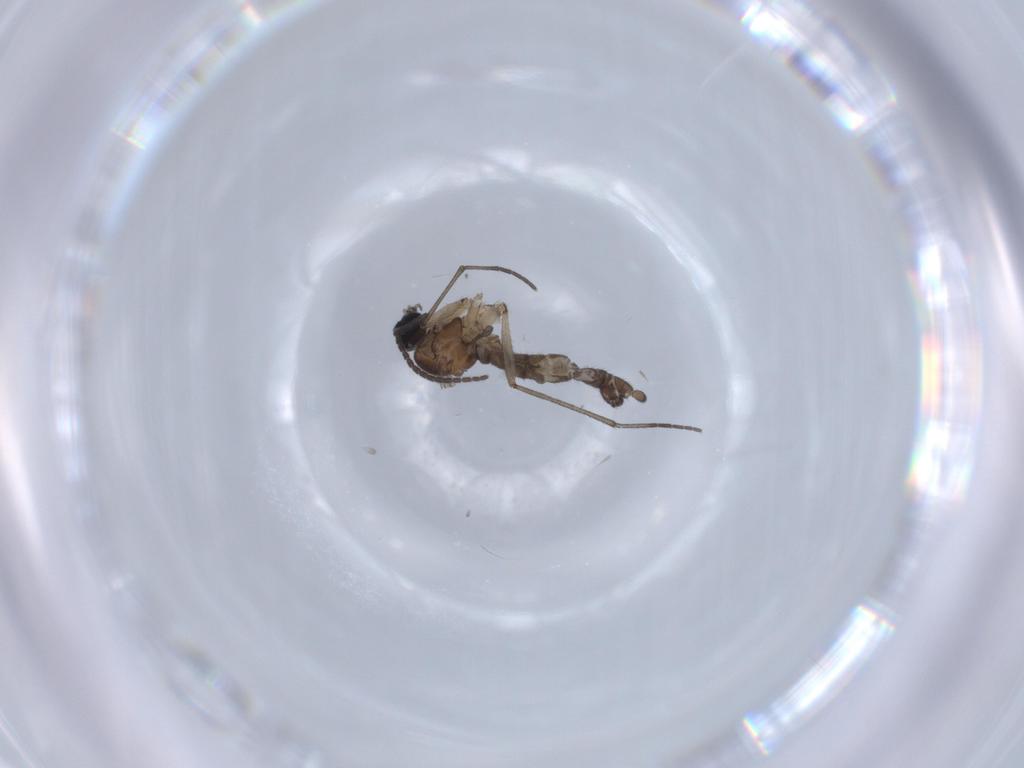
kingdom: Animalia
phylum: Arthropoda
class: Insecta
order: Diptera
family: Sciaridae
